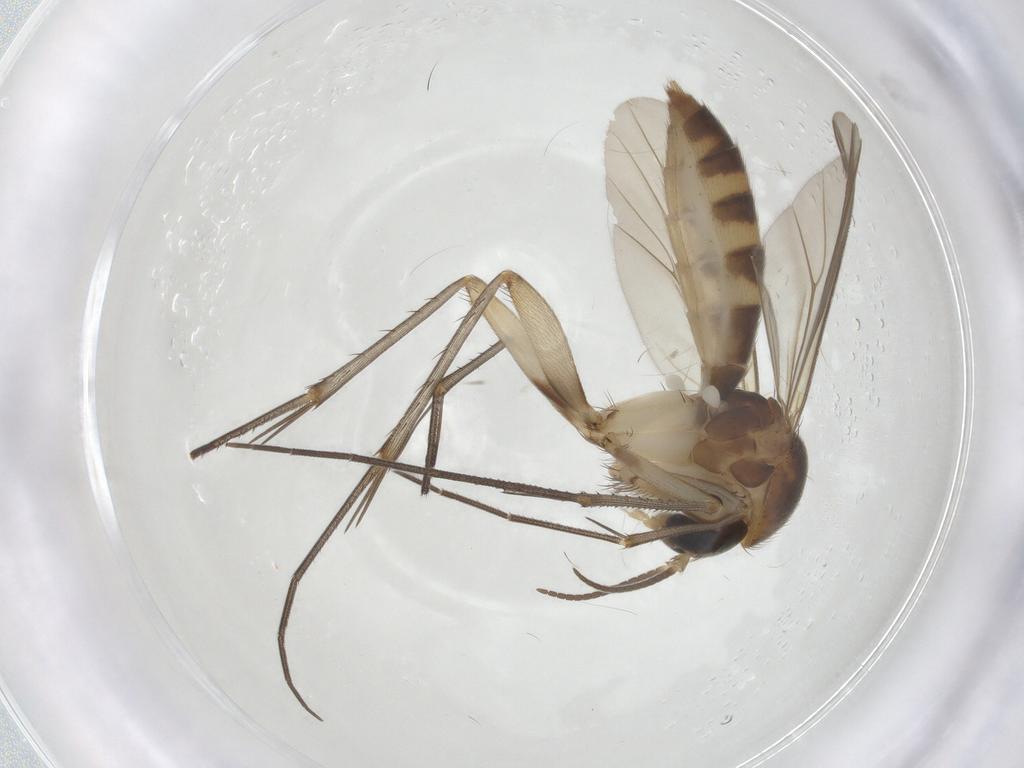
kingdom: Animalia
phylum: Arthropoda
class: Insecta
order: Diptera
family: Mycetophilidae
